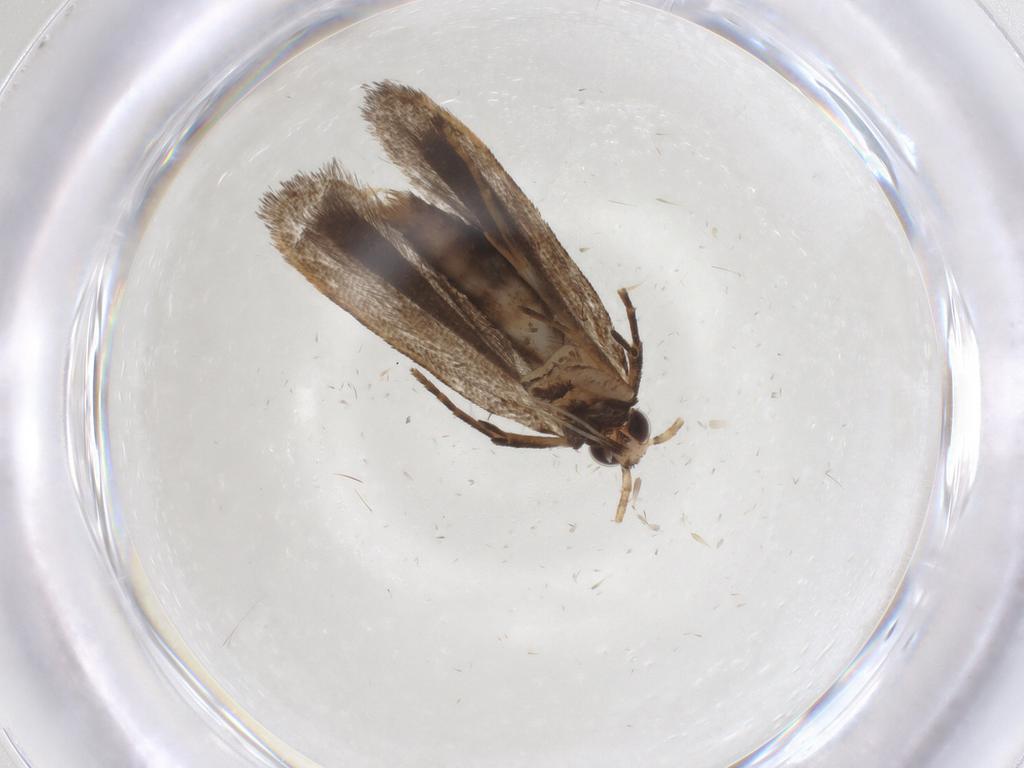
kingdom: Animalia
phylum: Arthropoda
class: Insecta
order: Lepidoptera
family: Gelechiidae
